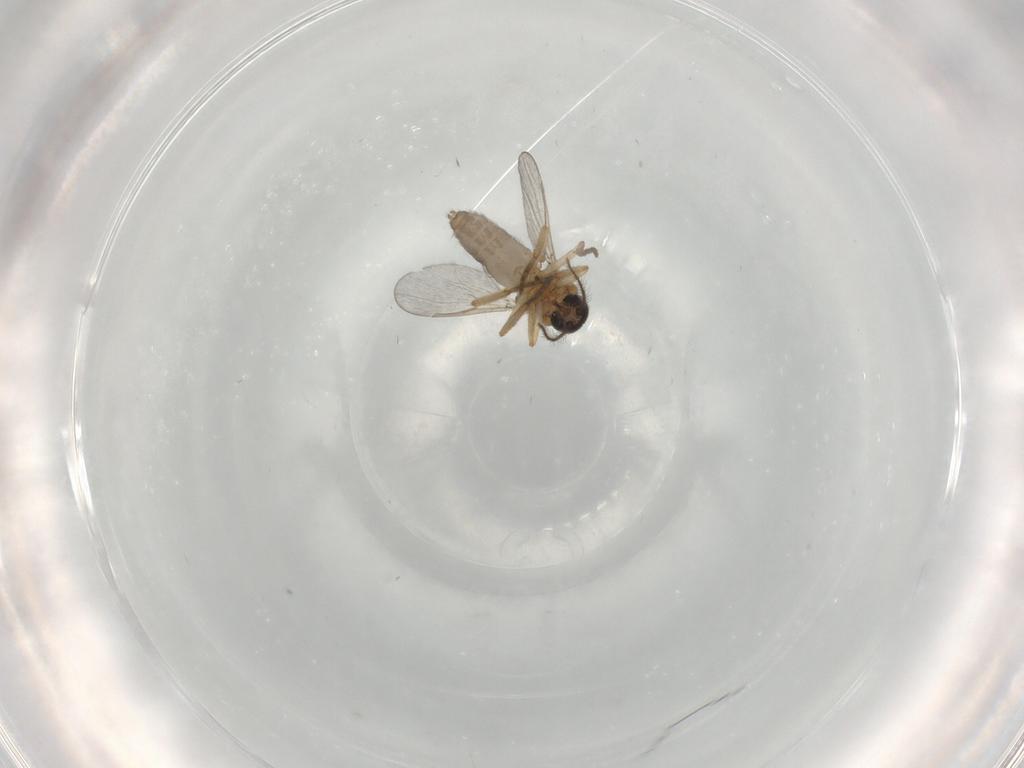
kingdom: Animalia
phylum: Arthropoda
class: Insecta
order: Diptera
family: Ceratopogonidae
